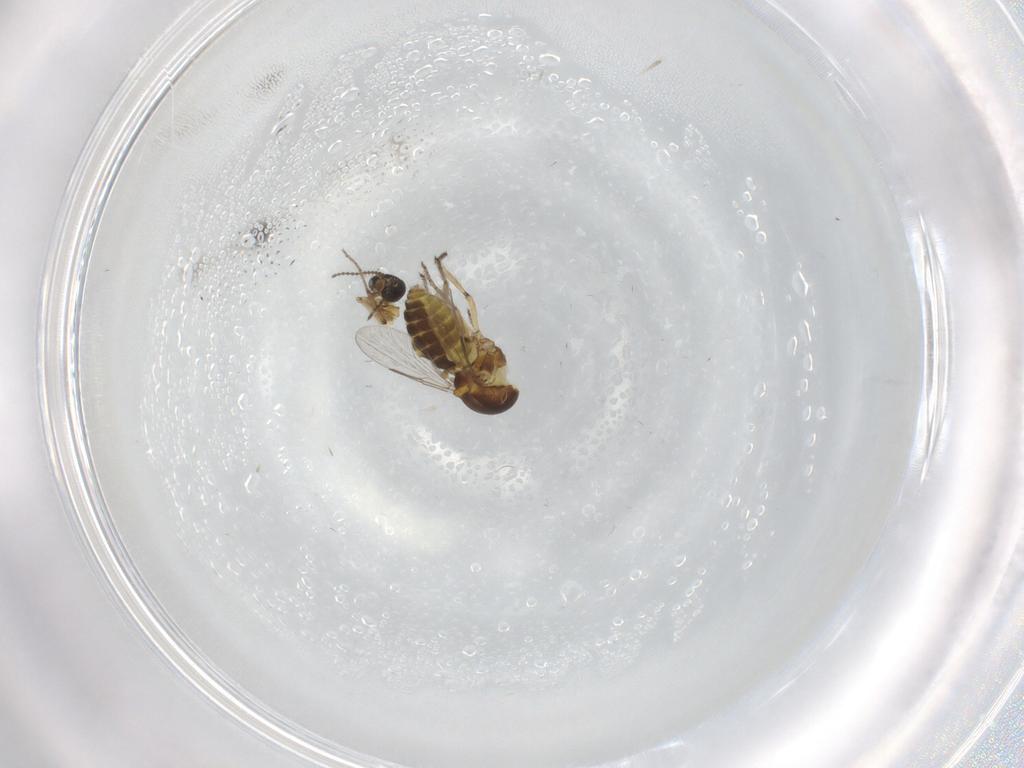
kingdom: Animalia
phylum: Arthropoda
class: Insecta
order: Diptera
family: Ceratopogonidae
